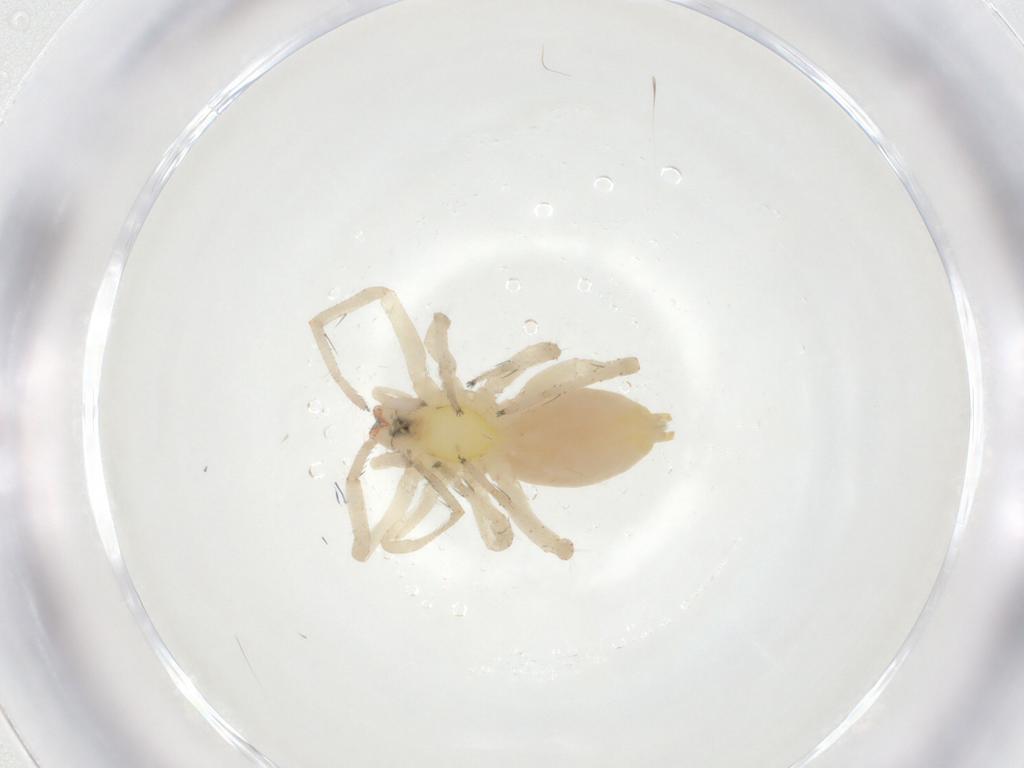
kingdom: Animalia
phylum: Arthropoda
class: Arachnida
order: Araneae
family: Anyphaenidae
